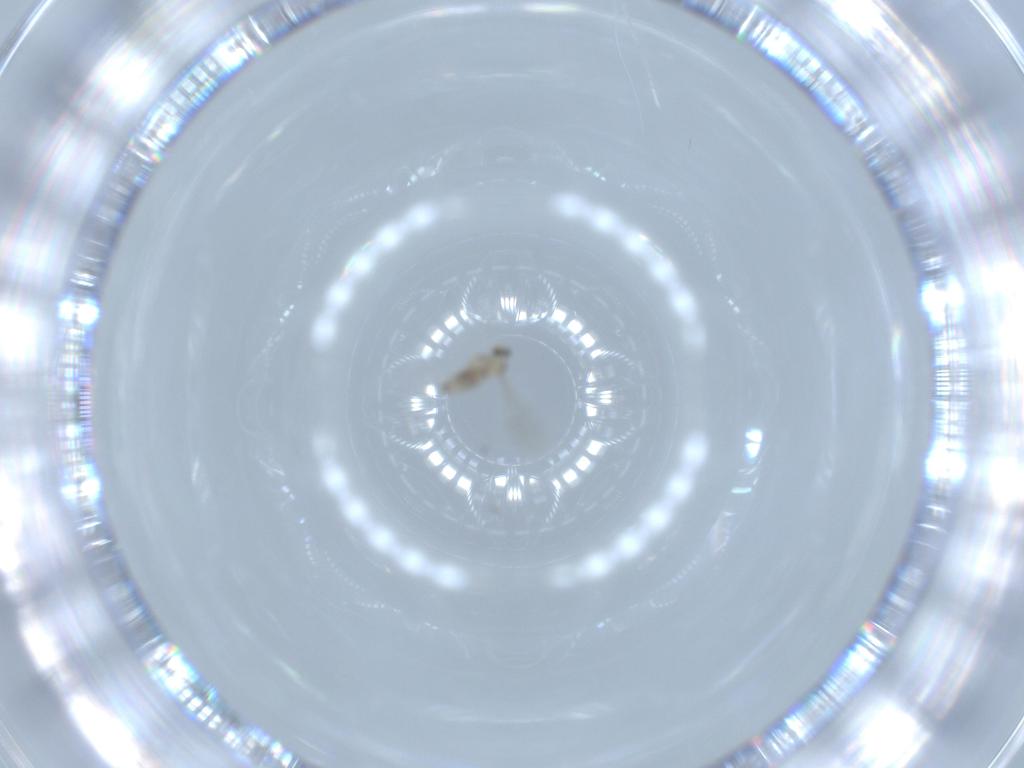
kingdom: Animalia
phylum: Arthropoda
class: Insecta
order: Diptera
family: Cecidomyiidae
